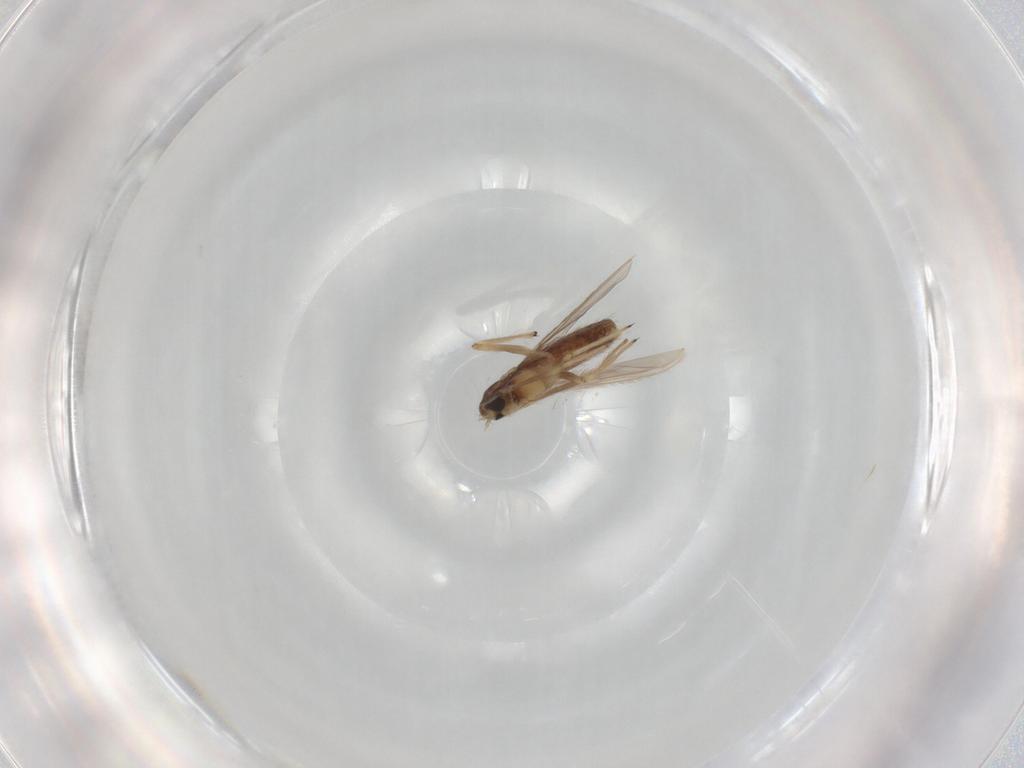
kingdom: Animalia
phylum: Arthropoda
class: Insecta
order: Diptera
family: Chironomidae
